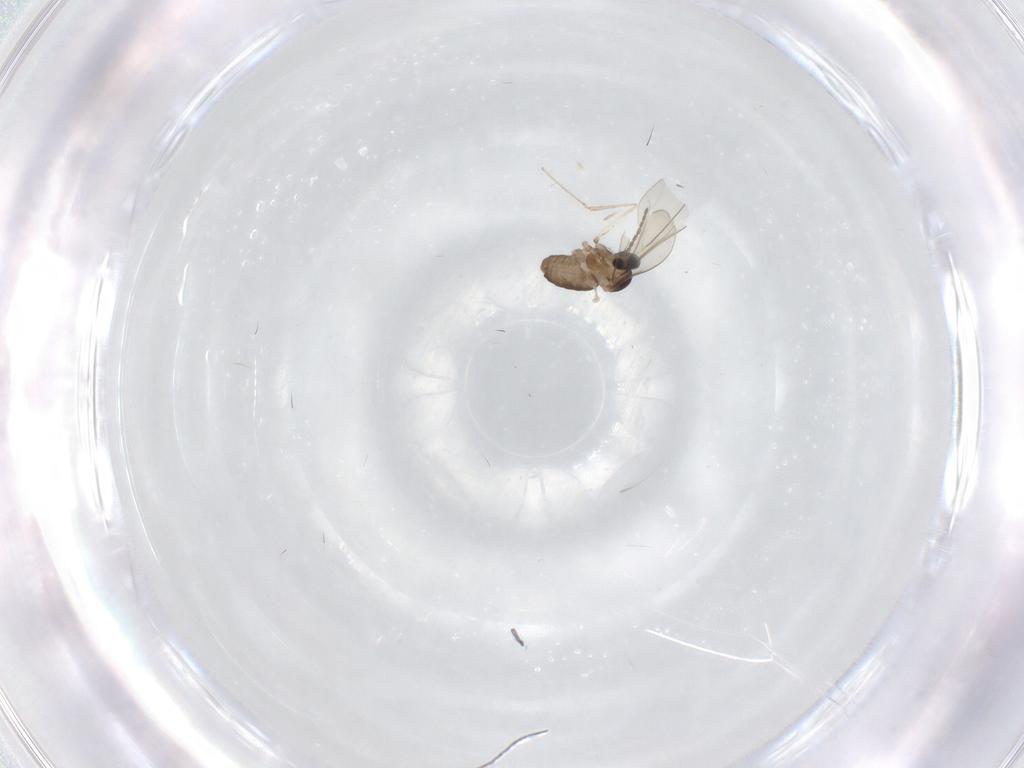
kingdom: Animalia
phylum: Arthropoda
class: Insecta
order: Diptera
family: Cecidomyiidae
